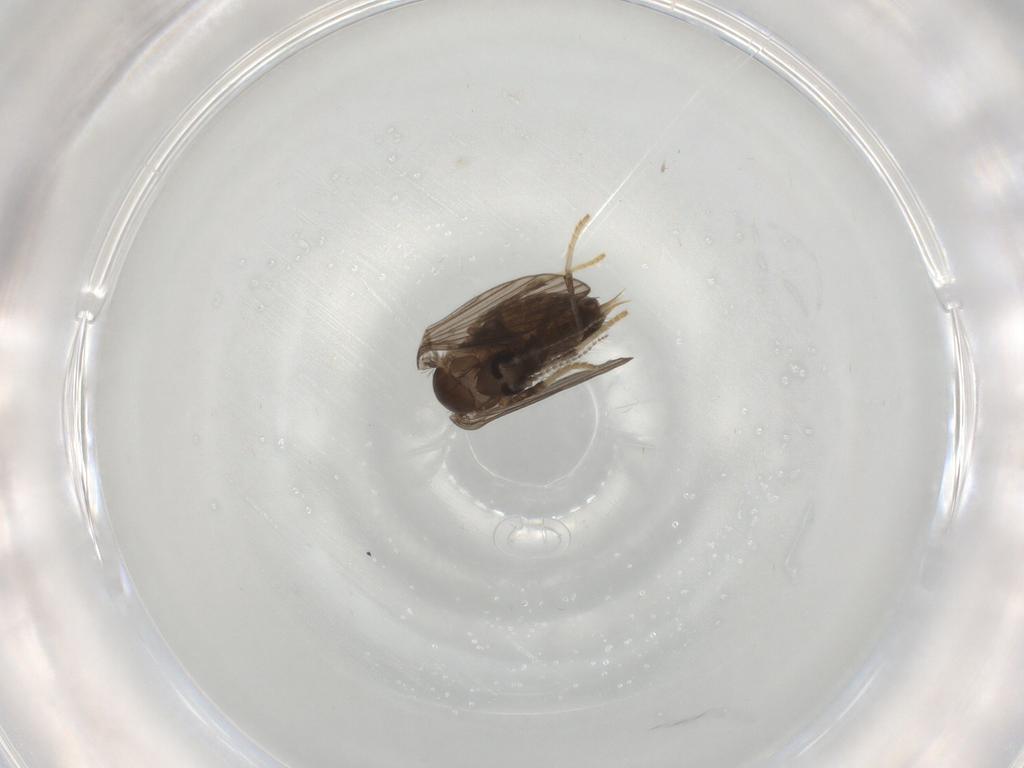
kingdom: Animalia
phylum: Arthropoda
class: Insecta
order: Diptera
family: Psychodidae
